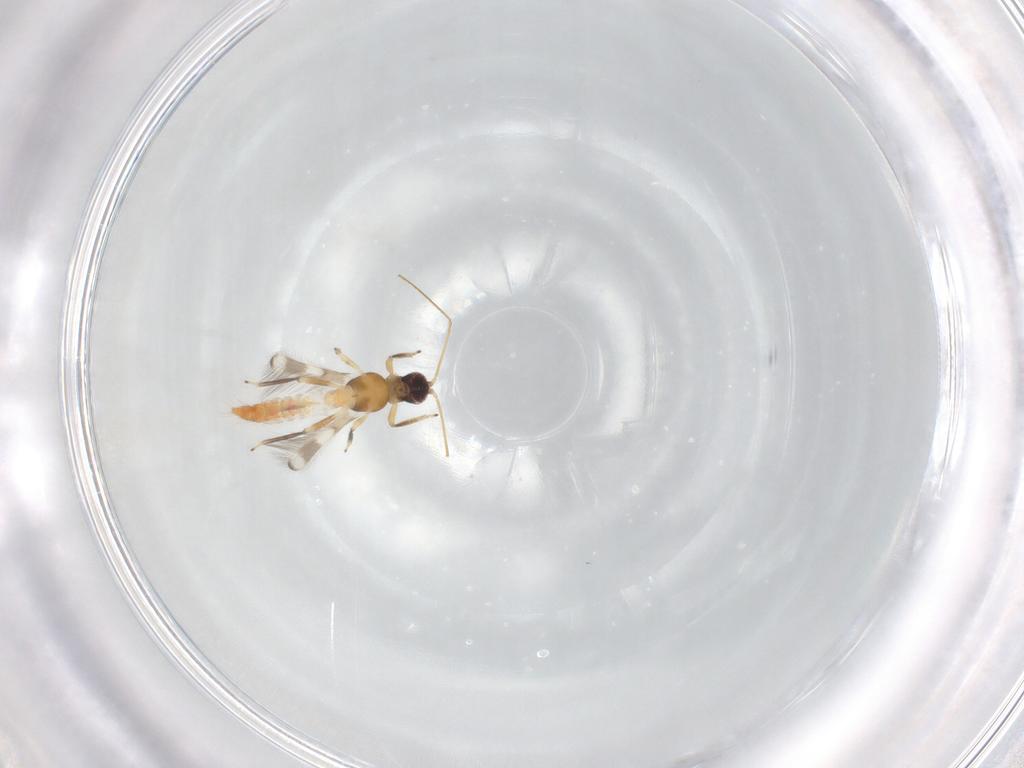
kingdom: Animalia
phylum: Arthropoda
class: Insecta
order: Thysanoptera
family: Aeolothripidae
